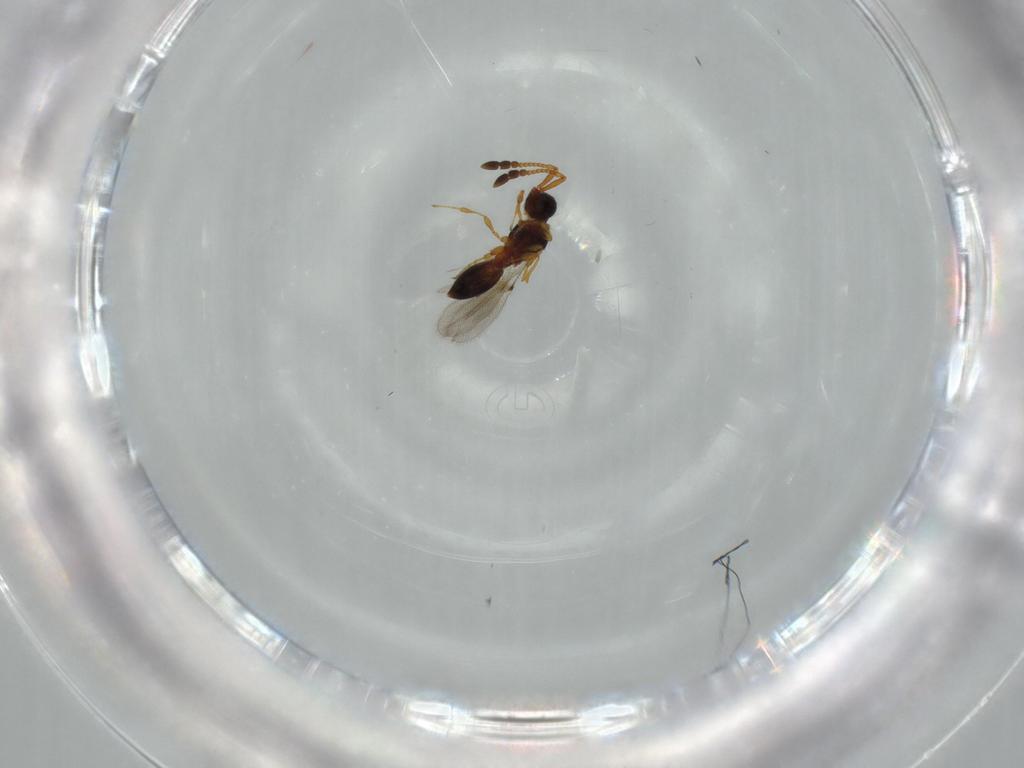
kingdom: Animalia
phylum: Arthropoda
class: Insecta
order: Hymenoptera
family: Diapriidae
